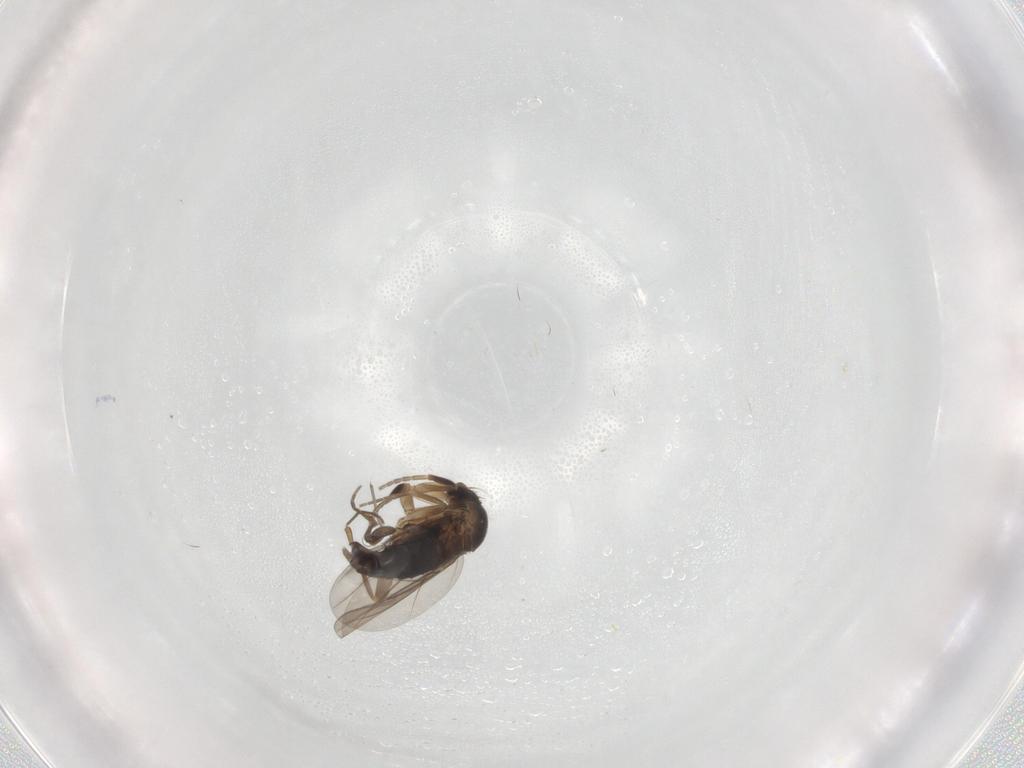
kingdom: Animalia
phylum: Arthropoda
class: Insecta
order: Diptera
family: Phoridae
